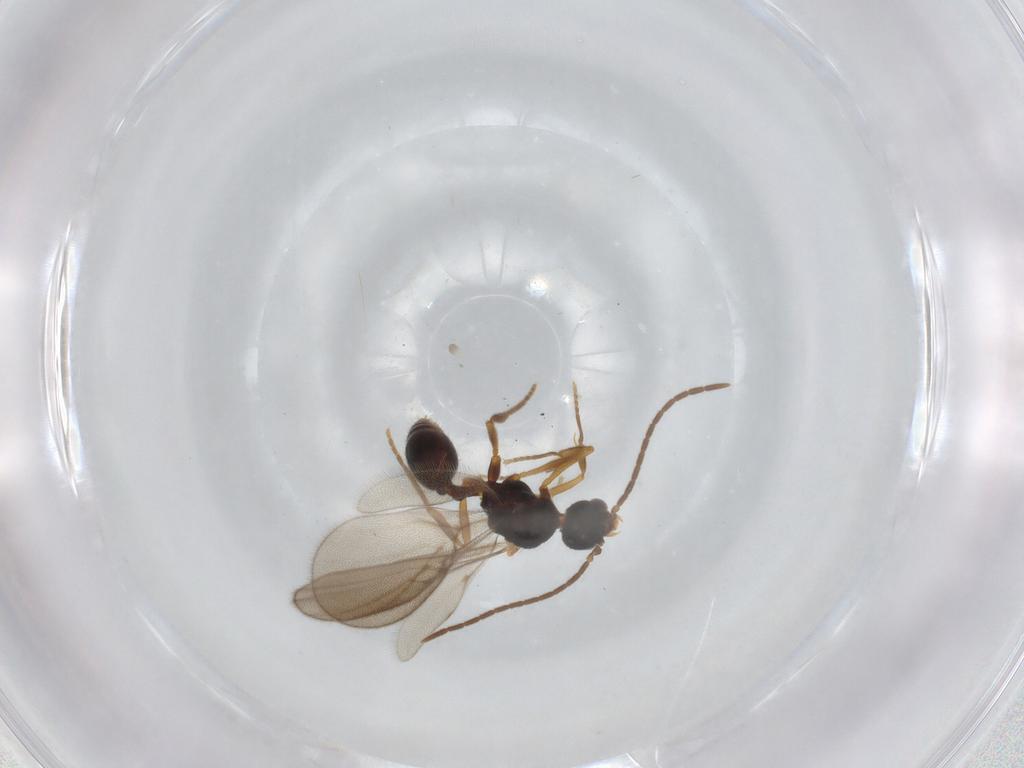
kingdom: Animalia
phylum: Arthropoda
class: Insecta
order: Hymenoptera
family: Formicidae
